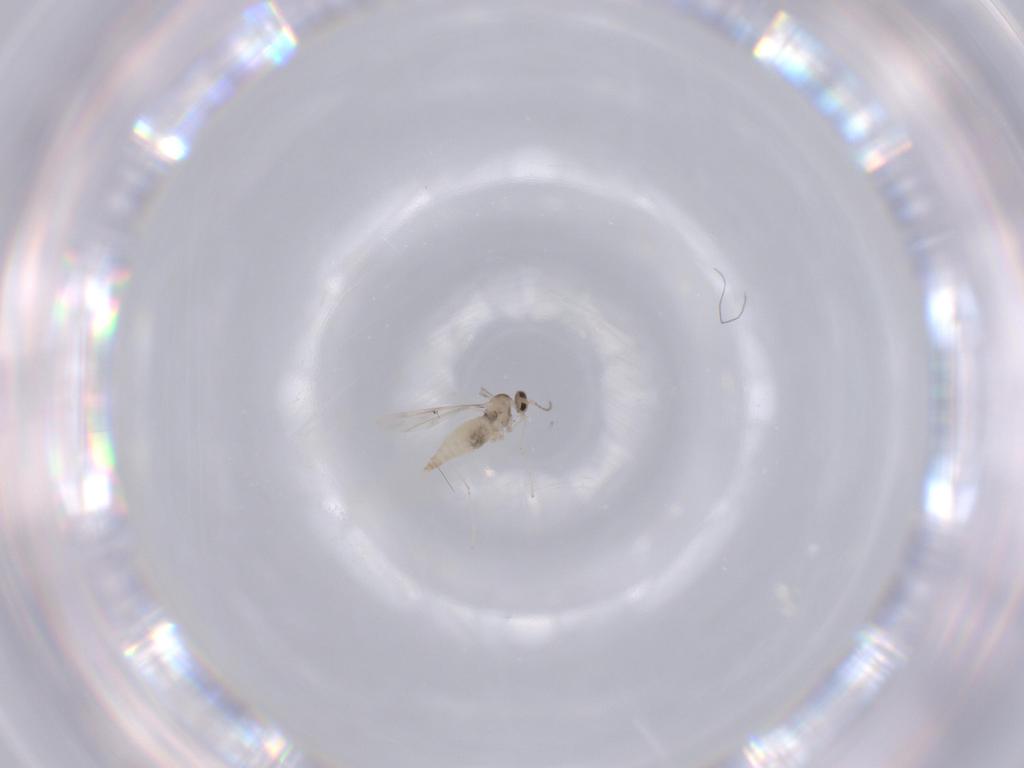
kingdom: Animalia
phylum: Arthropoda
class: Insecta
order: Diptera
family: Cecidomyiidae
